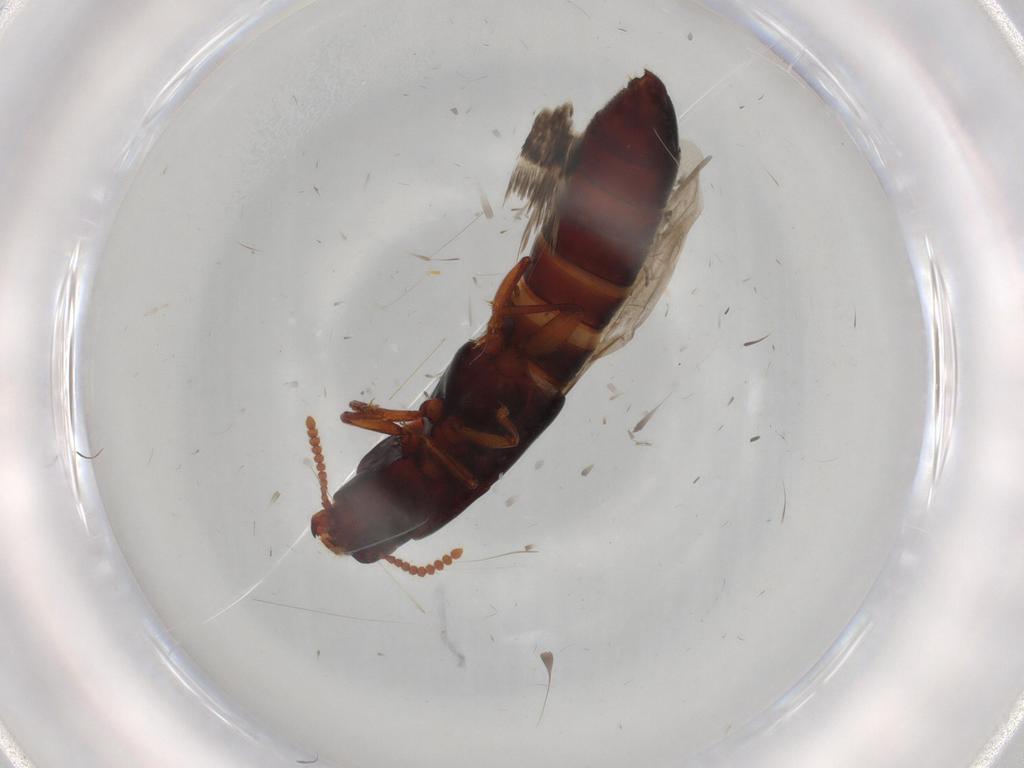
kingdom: Animalia
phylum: Arthropoda
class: Insecta
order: Coleoptera
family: Staphylinidae
